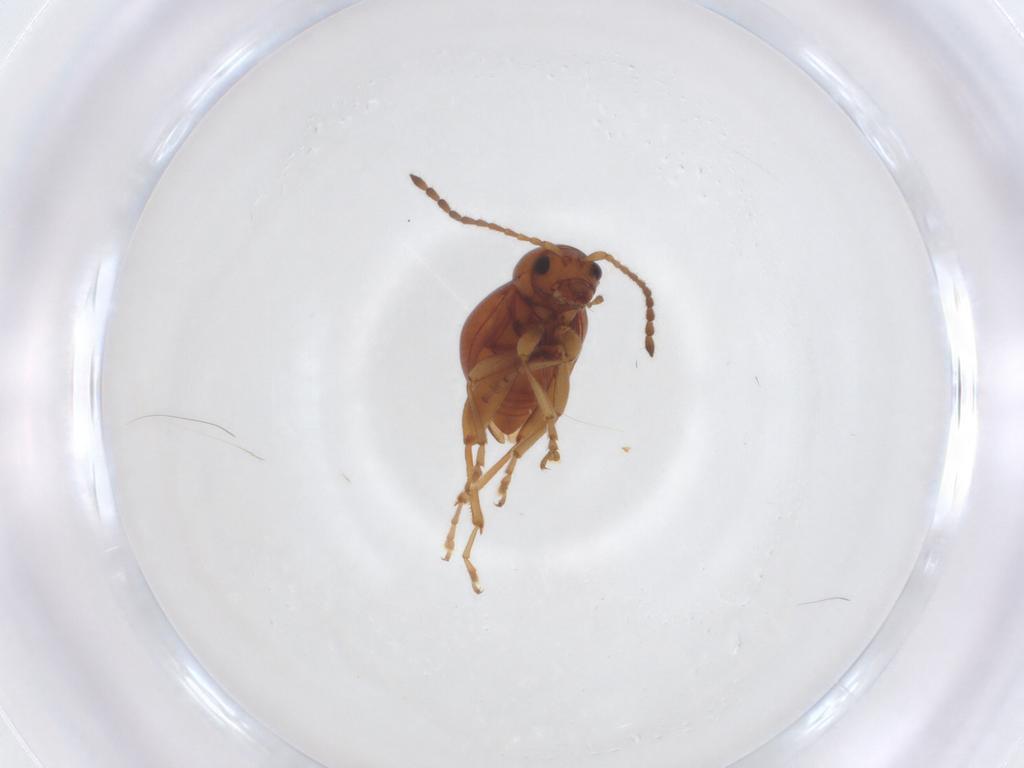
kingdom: Animalia
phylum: Arthropoda
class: Insecta
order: Coleoptera
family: Chrysomelidae
